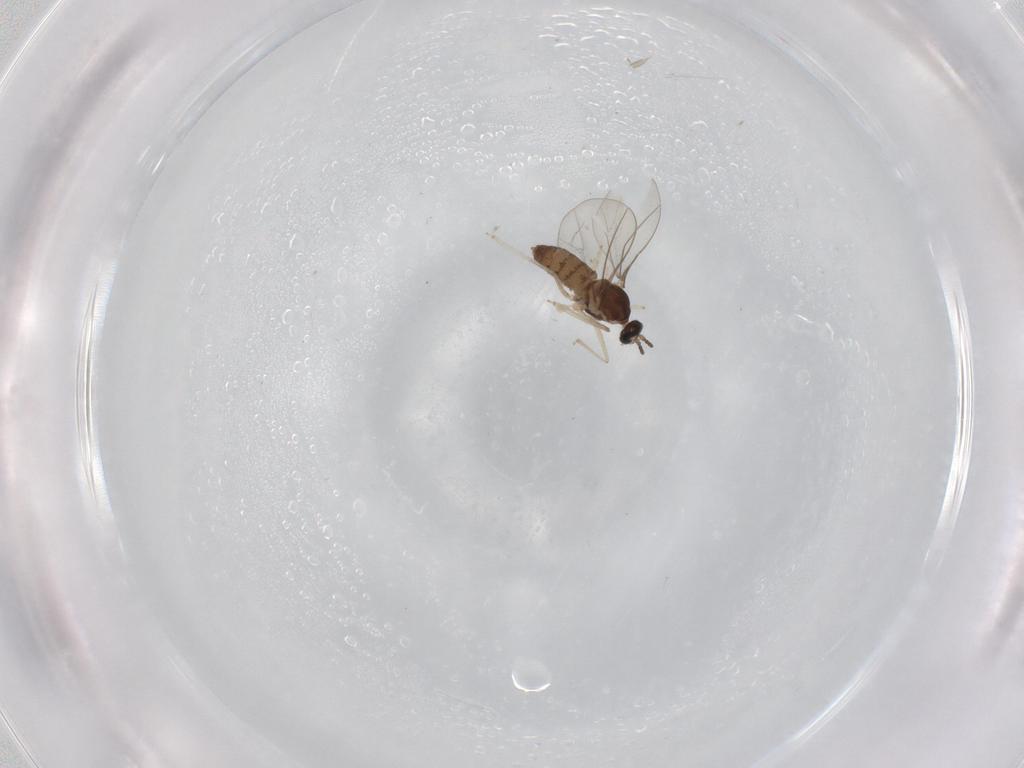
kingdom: Animalia
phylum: Arthropoda
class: Insecta
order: Diptera
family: Cecidomyiidae
